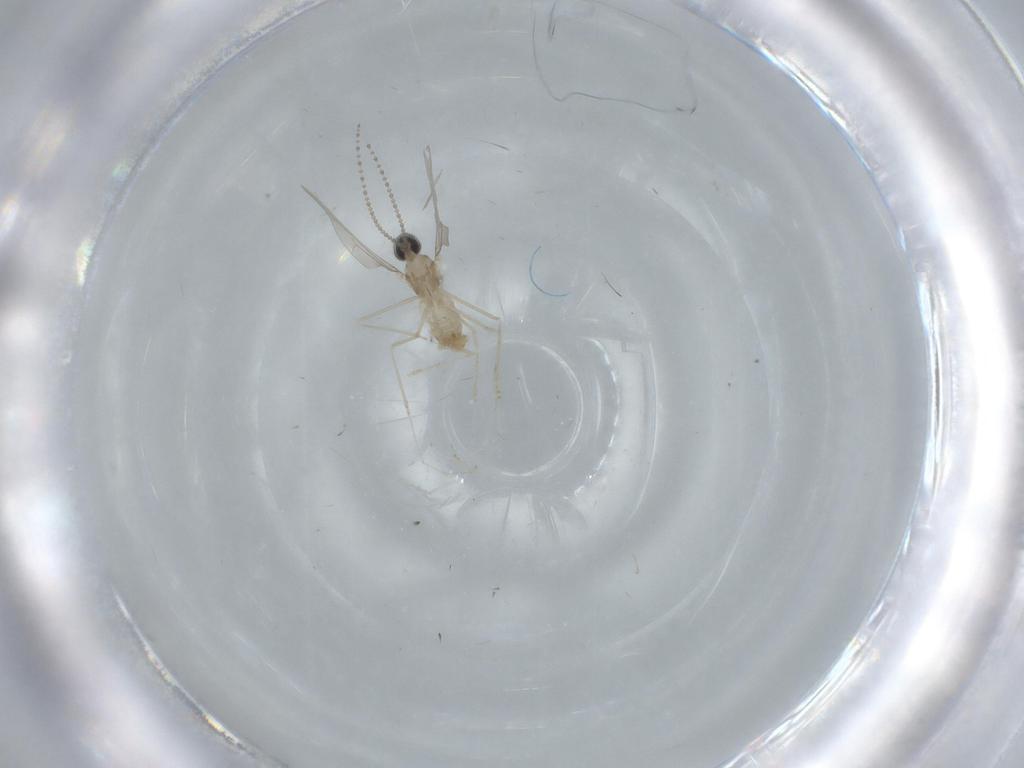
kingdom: Animalia
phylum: Arthropoda
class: Insecta
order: Diptera
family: Cecidomyiidae
